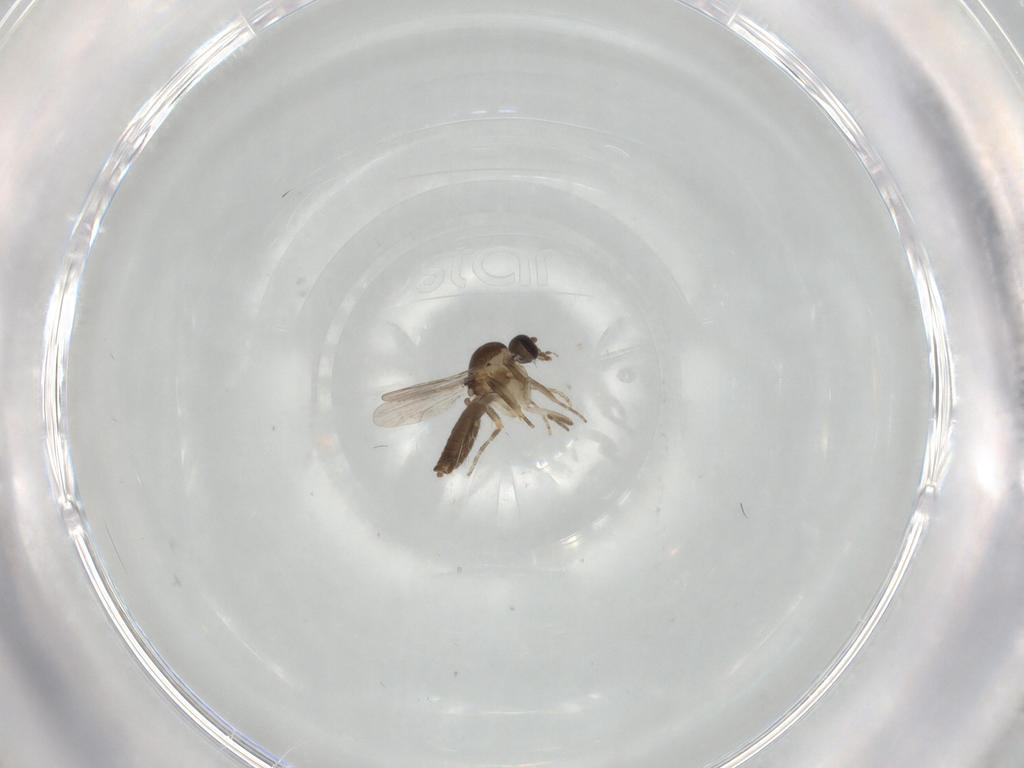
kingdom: Animalia
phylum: Arthropoda
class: Insecta
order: Diptera
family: Ceratopogonidae
